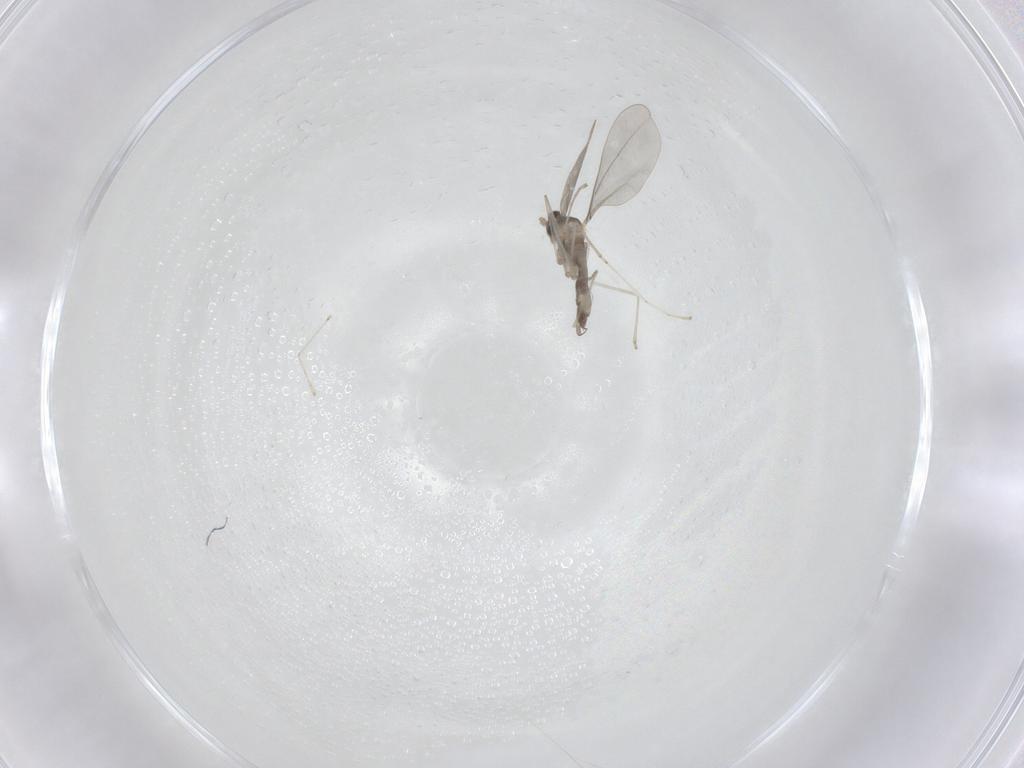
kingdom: Animalia
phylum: Arthropoda
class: Insecta
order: Diptera
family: Cecidomyiidae
